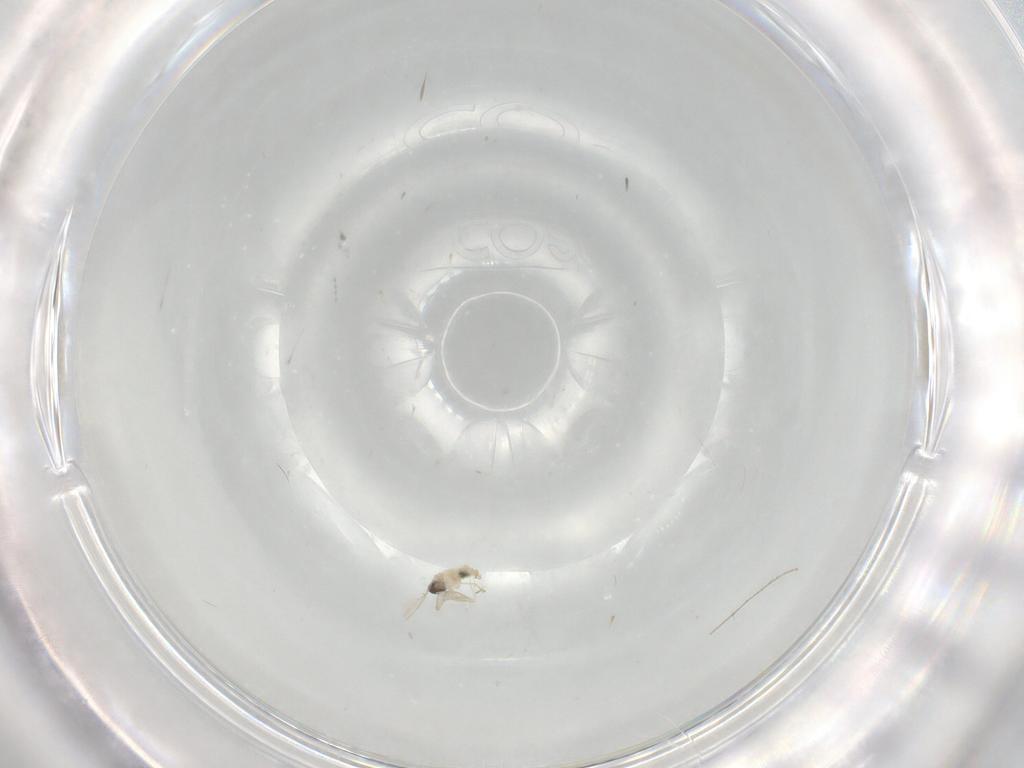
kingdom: Animalia
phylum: Arthropoda
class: Insecta
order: Diptera
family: Cecidomyiidae
